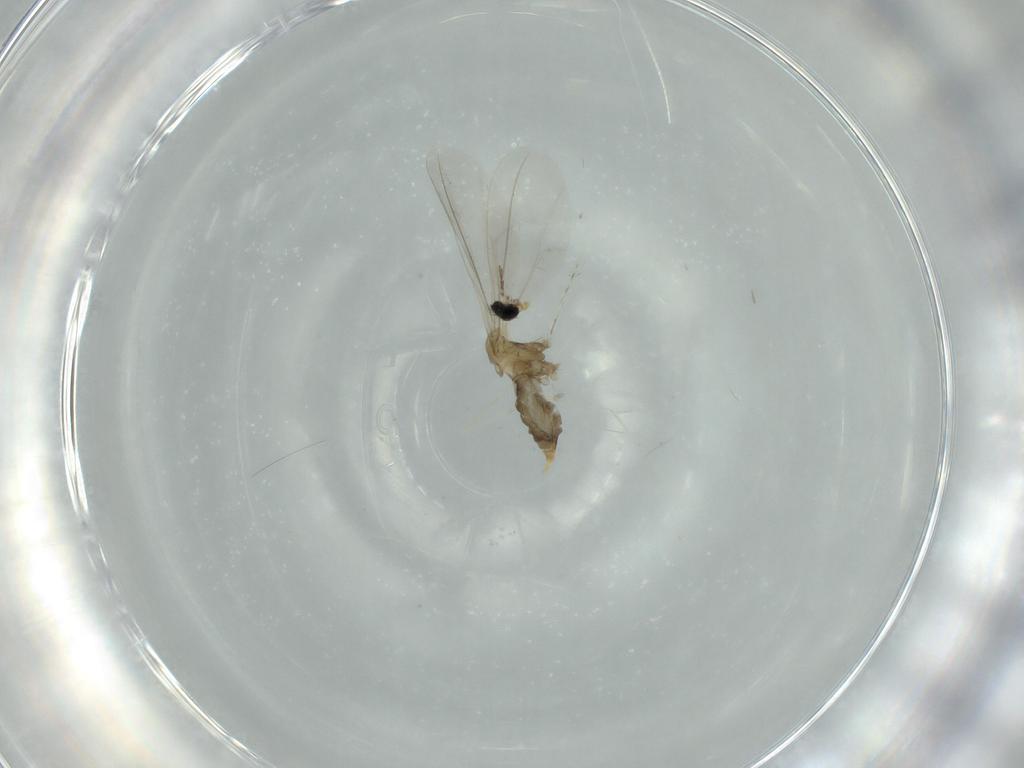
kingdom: Animalia
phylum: Arthropoda
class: Insecta
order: Diptera
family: Cecidomyiidae
